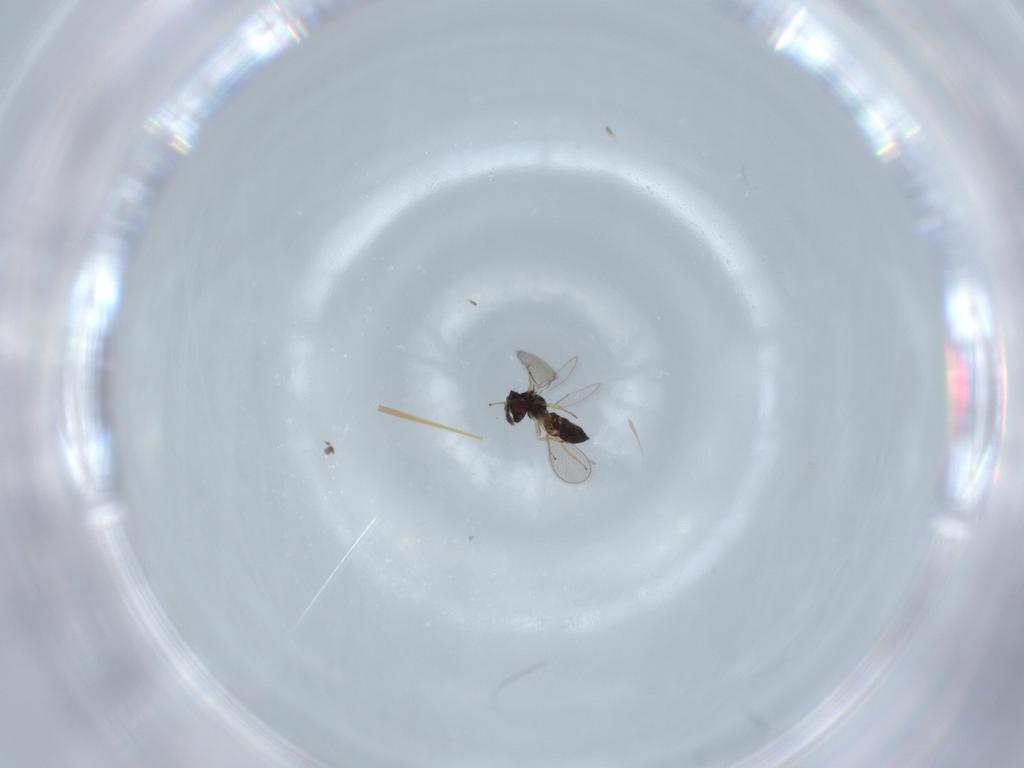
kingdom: Animalia
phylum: Arthropoda
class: Insecta
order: Hymenoptera
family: Eulophidae
